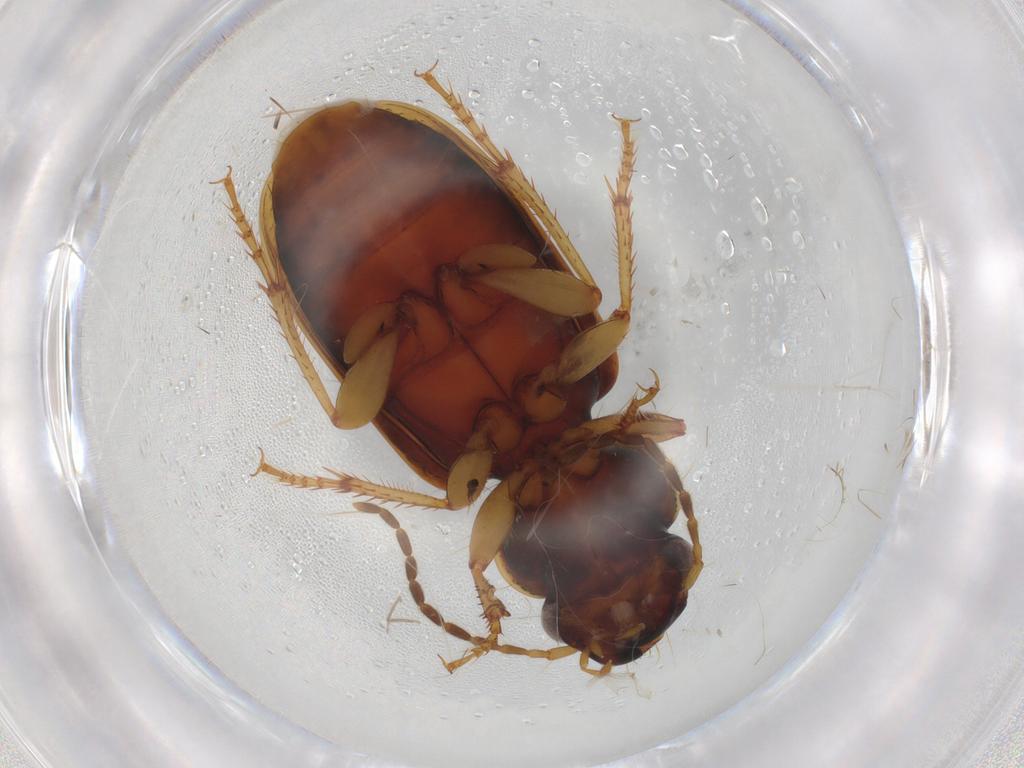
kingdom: Animalia
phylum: Arthropoda
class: Insecta
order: Coleoptera
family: Carabidae
